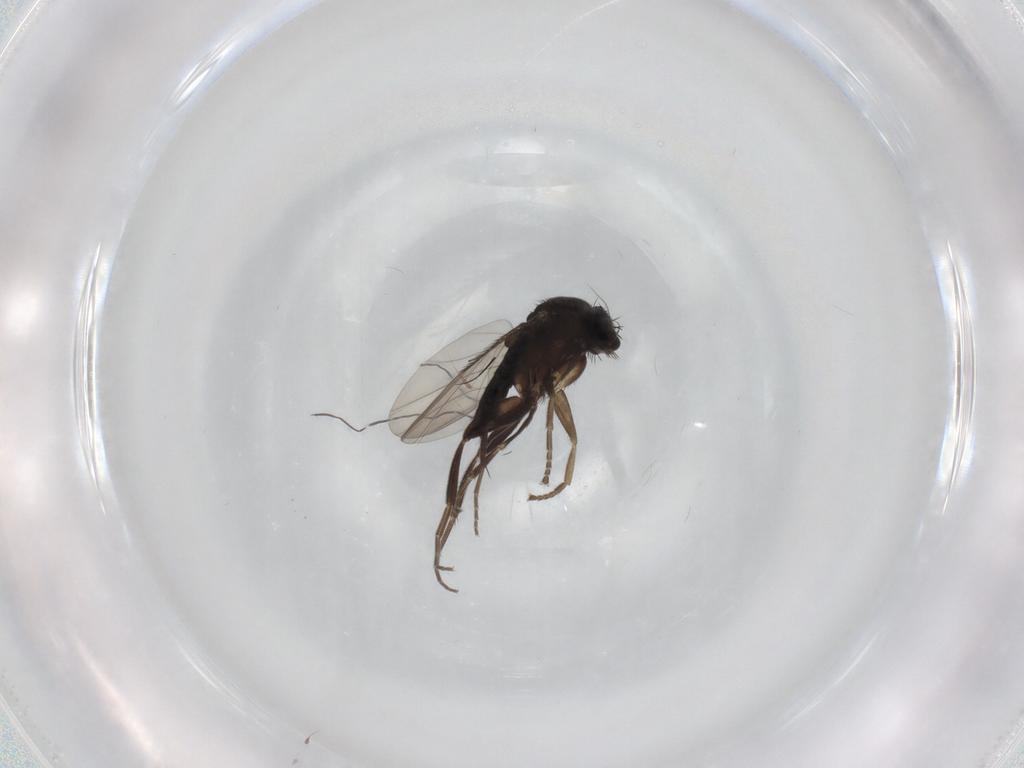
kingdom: Animalia
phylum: Arthropoda
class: Insecta
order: Diptera
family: Phoridae
